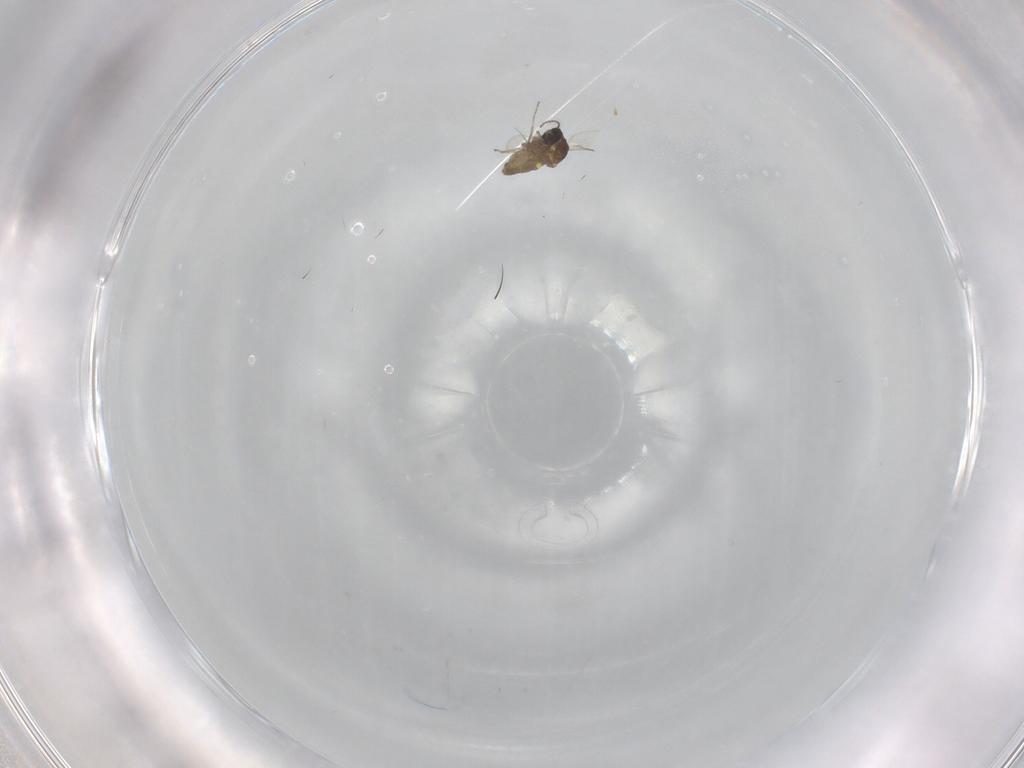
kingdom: Animalia
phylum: Arthropoda
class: Insecta
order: Diptera
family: Ceratopogonidae
